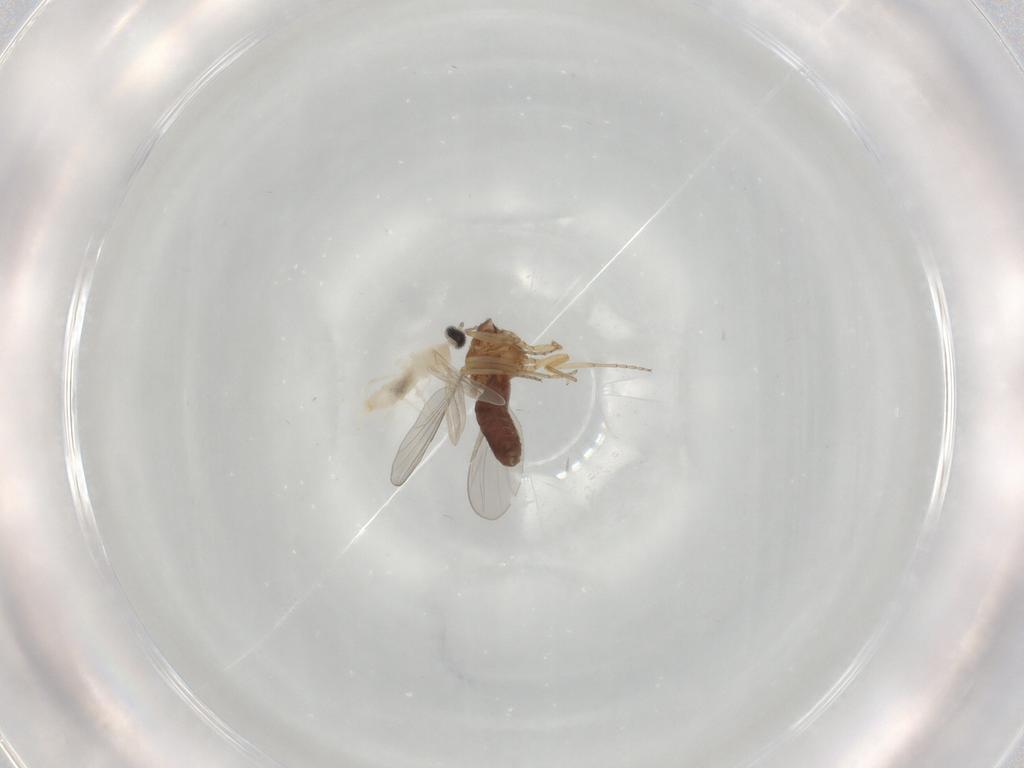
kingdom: Animalia
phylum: Arthropoda
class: Insecta
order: Diptera
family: Ceratopogonidae
